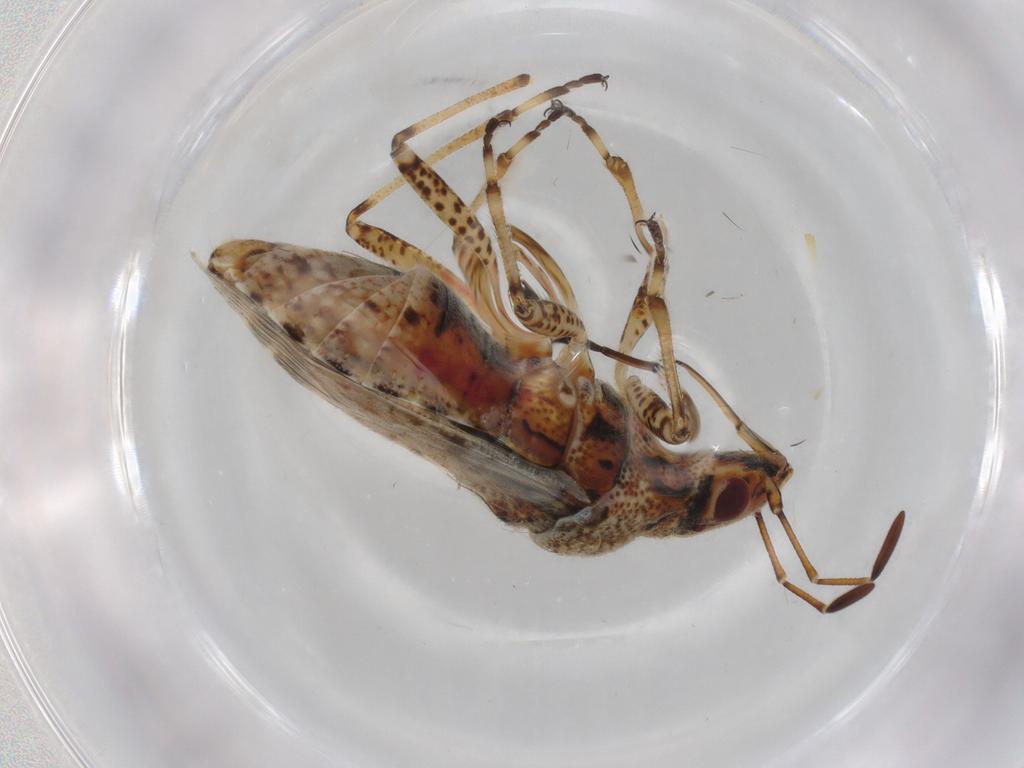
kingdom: Animalia
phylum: Arthropoda
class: Insecta
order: Hemiptera
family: Lygaeidae
